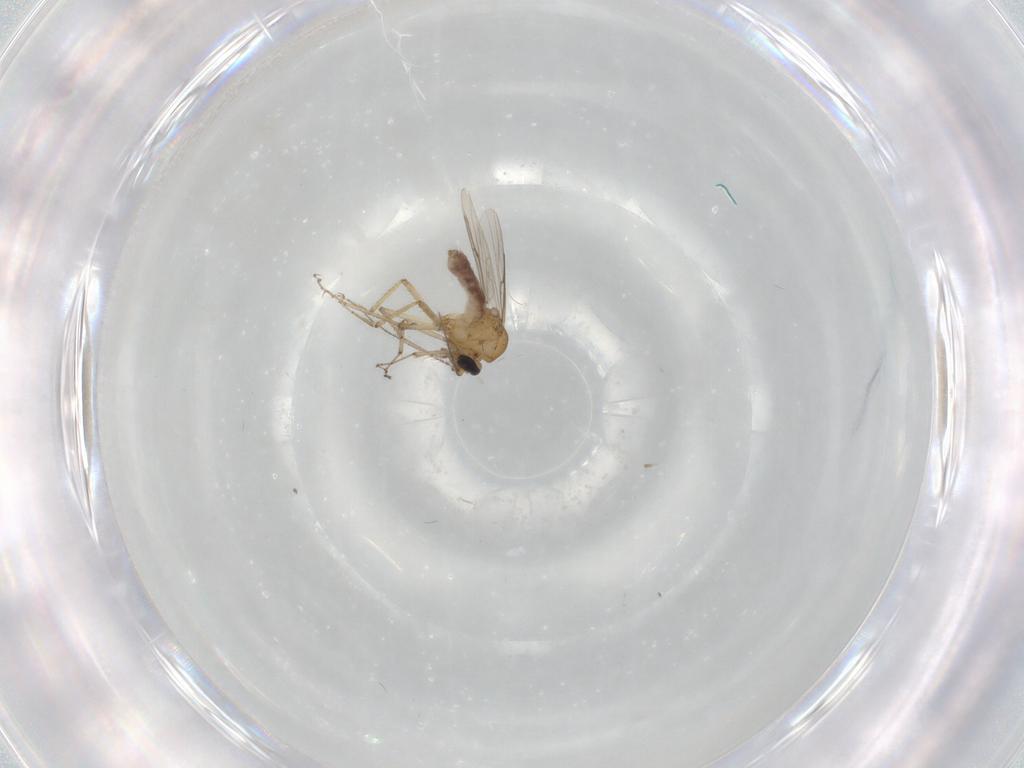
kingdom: Animalia
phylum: Arthropoda
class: Insecta
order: Diptera
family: Ceratopogonidae
